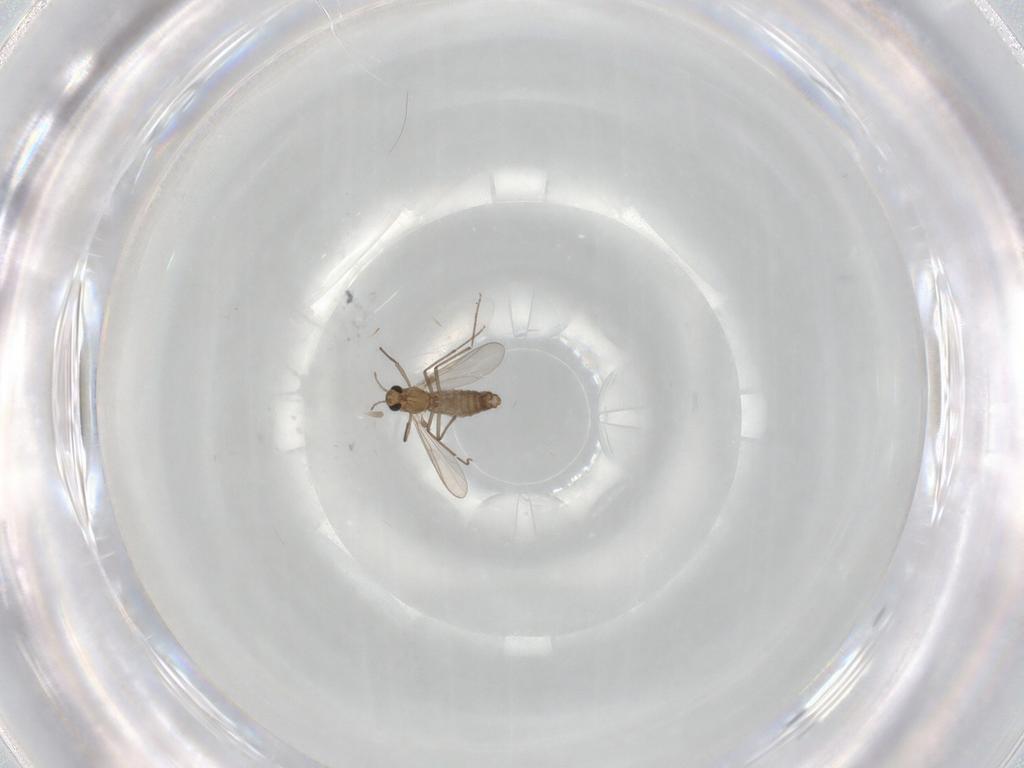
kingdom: Animalia
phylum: Arthropoda
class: Insecta
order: Diptera
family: Chironomidae
